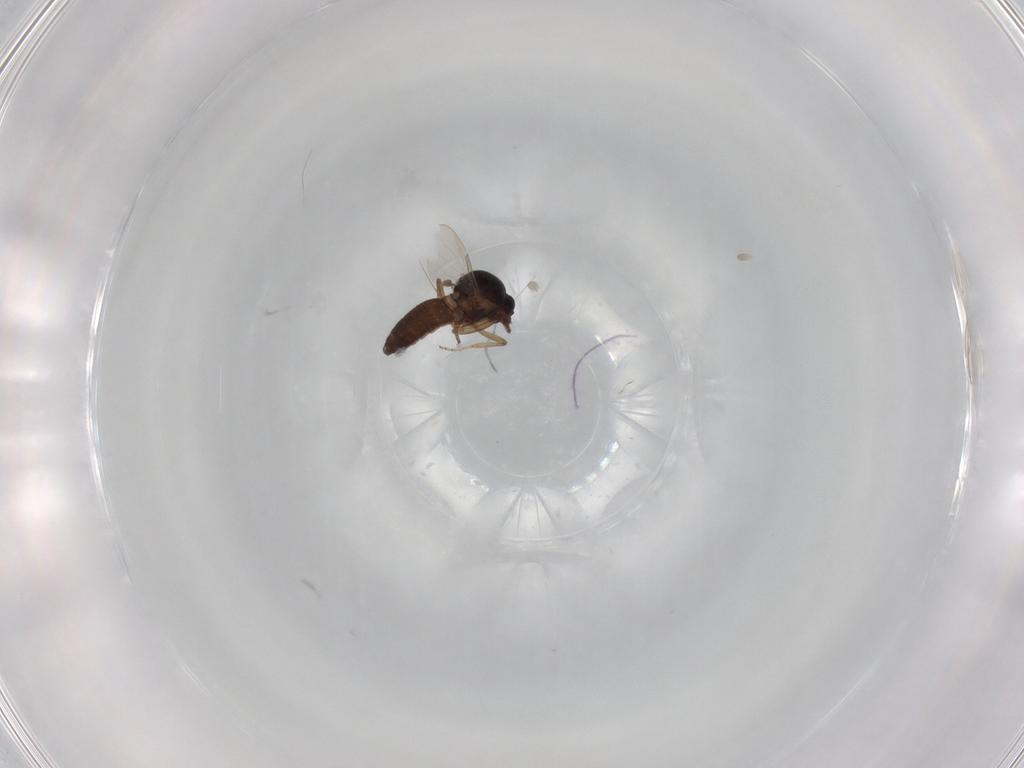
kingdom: Animalia
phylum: Arthropoda
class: Insecta
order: Diptera
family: Ceratopogonidae
